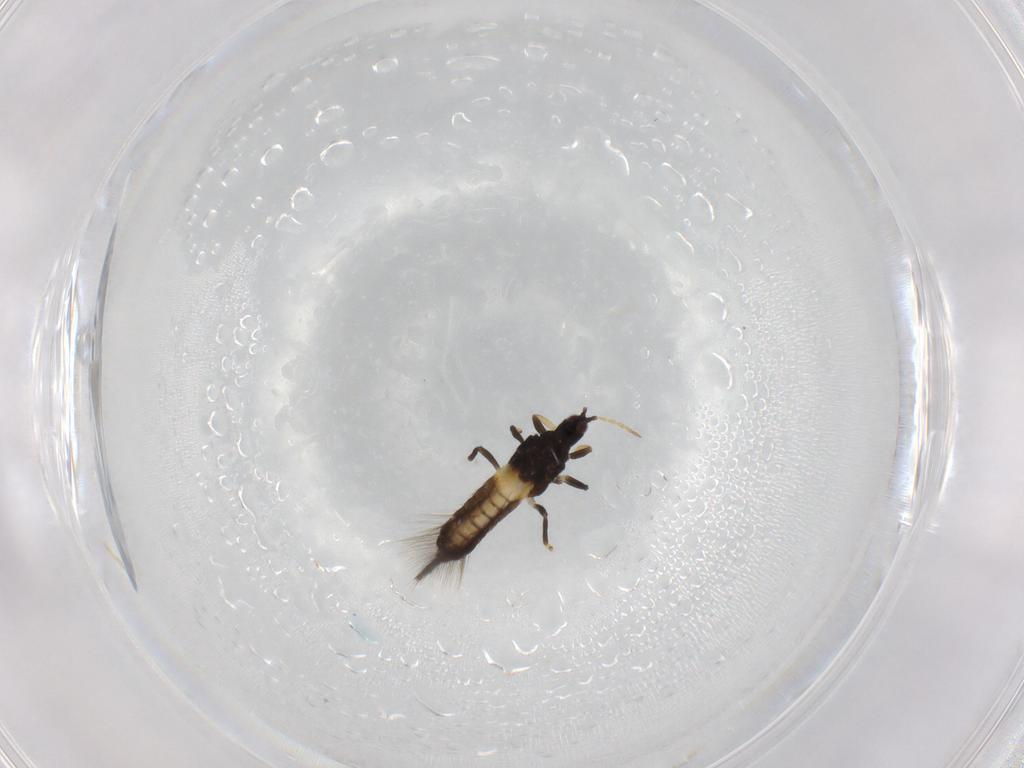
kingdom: Animalia
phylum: Arthropoda
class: Insecta
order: Thysanoptera
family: Phlaeothripidae
